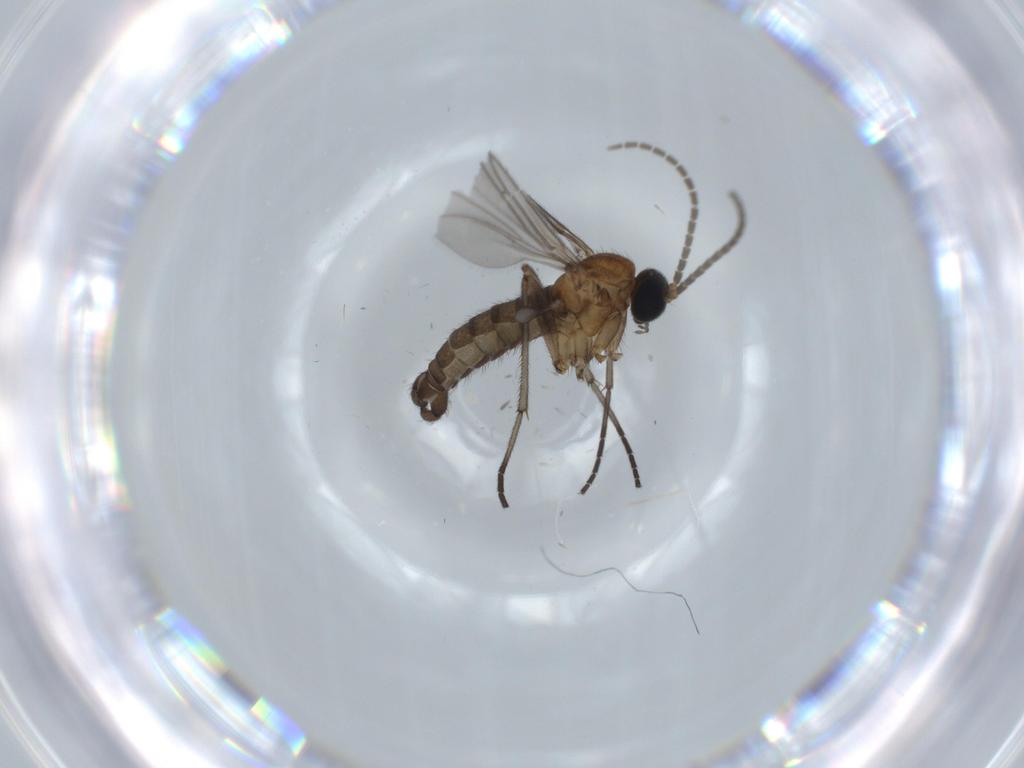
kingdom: Animalia
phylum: Arthropoda
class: Insecta
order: Diptera
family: Sciaridae
